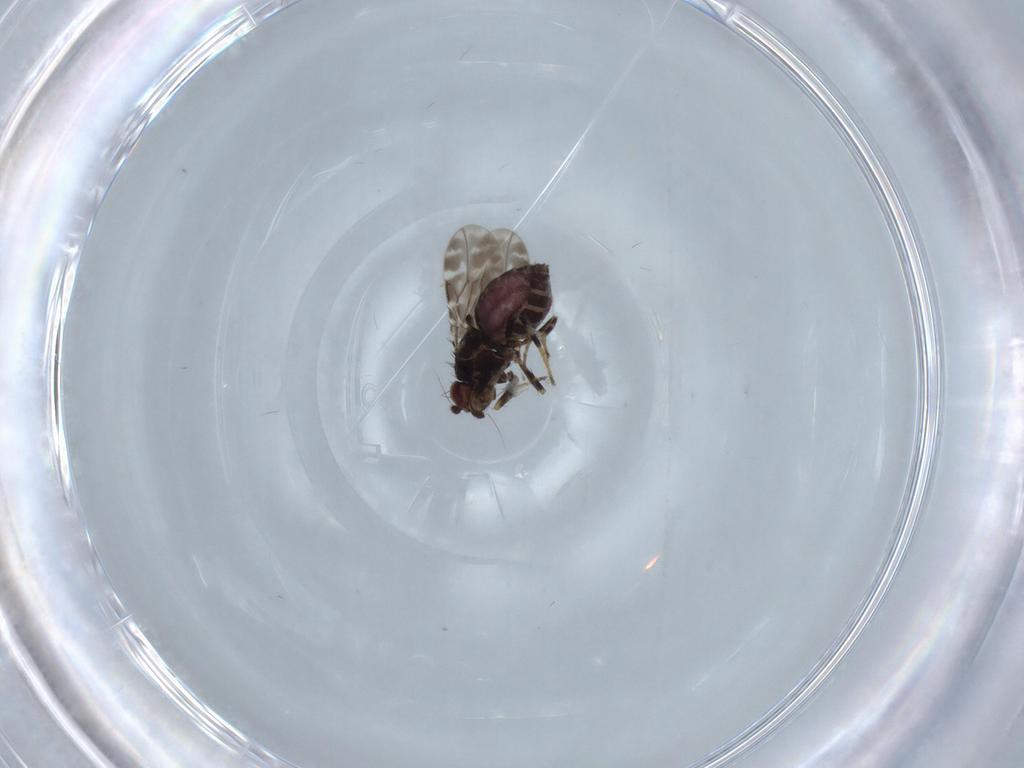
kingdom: Animalia
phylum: Arthropoda
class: Insecta
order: Diptera
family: Sphaeroceridae
